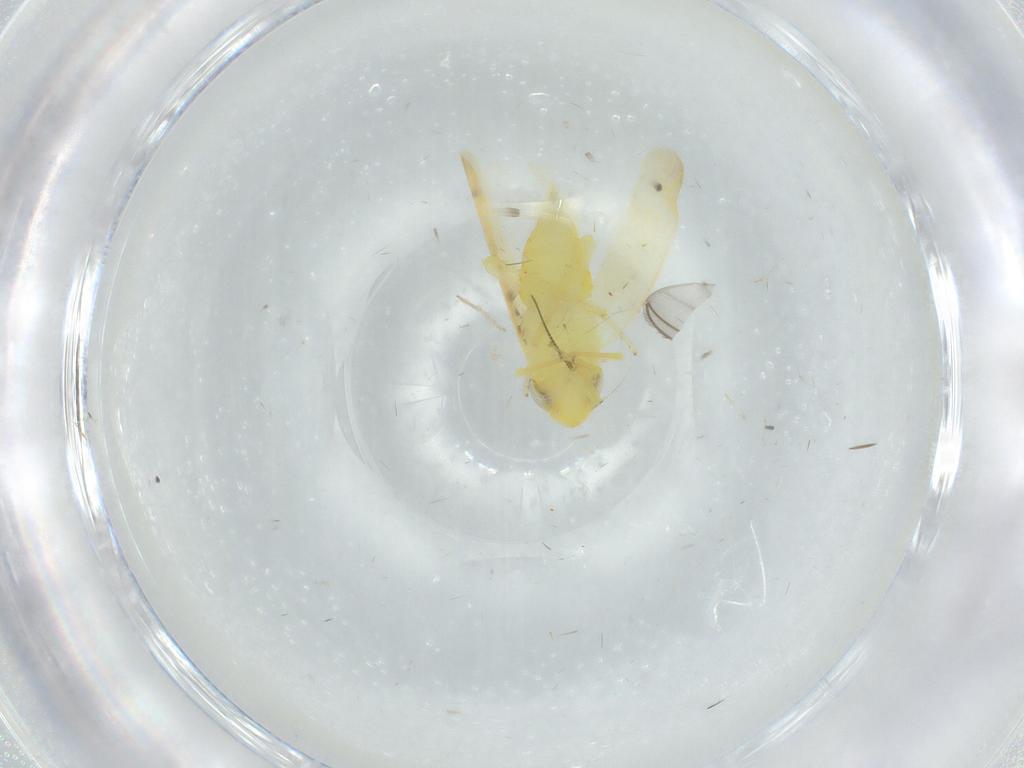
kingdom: Animalia
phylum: Arthropoda
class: Insecta
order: Hemiptera
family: Cicadellidae
